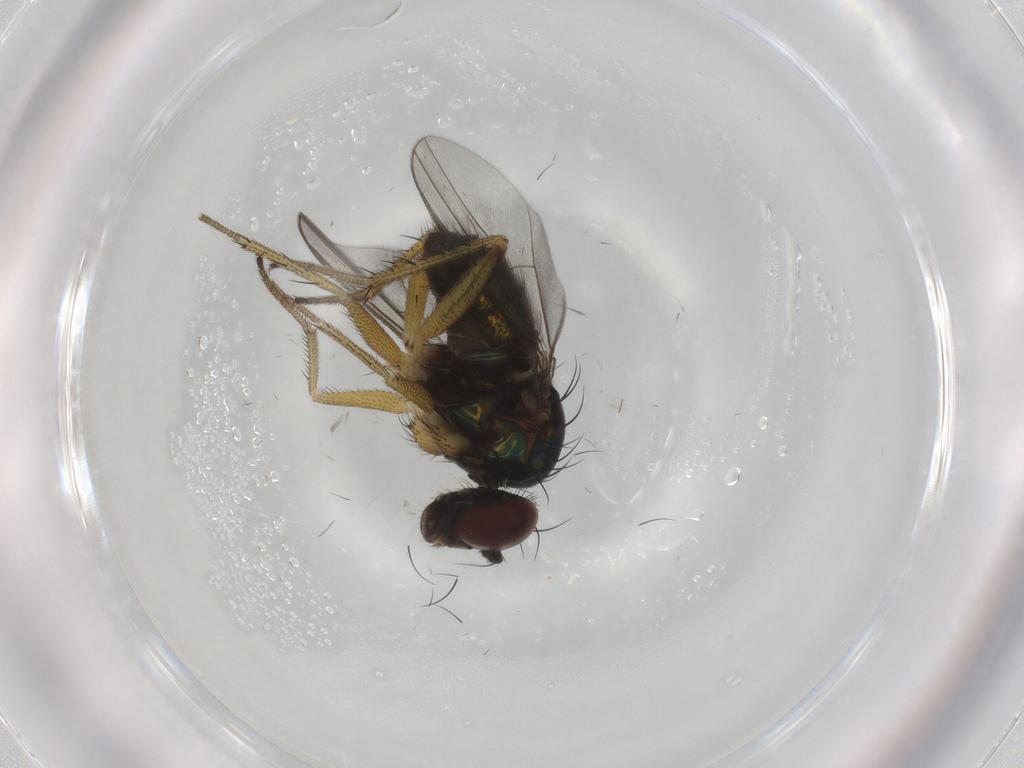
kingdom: Animalia
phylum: Arthropoda
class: Insecta
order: Diptera
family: Dolichopodidae
